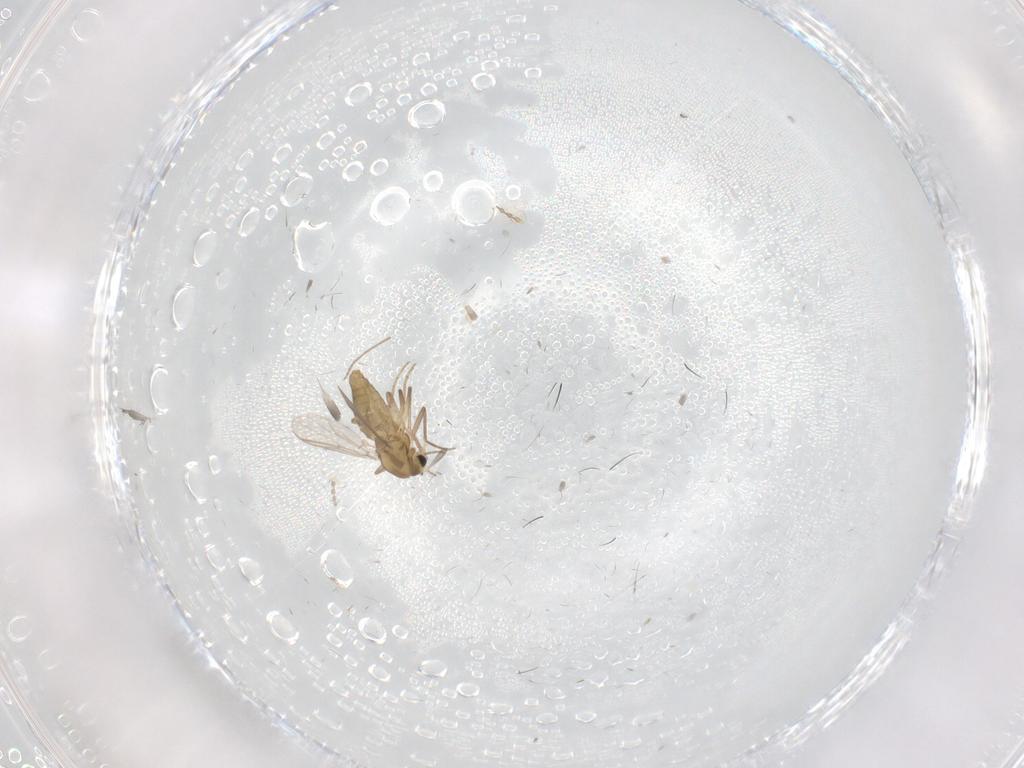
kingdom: Animalia
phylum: Arthropoda
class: Insecta
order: Diptera
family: Chironomidae
